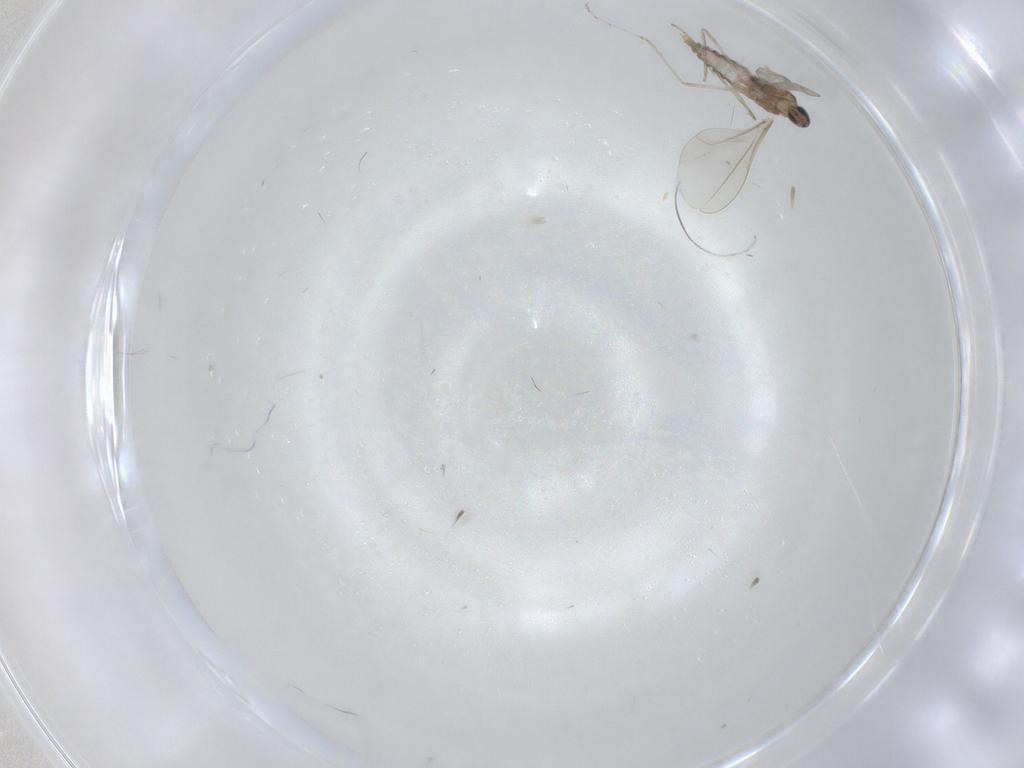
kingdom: Animalia
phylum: Arthropoda
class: Insecta
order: Diptera
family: Cecidomyiidae
